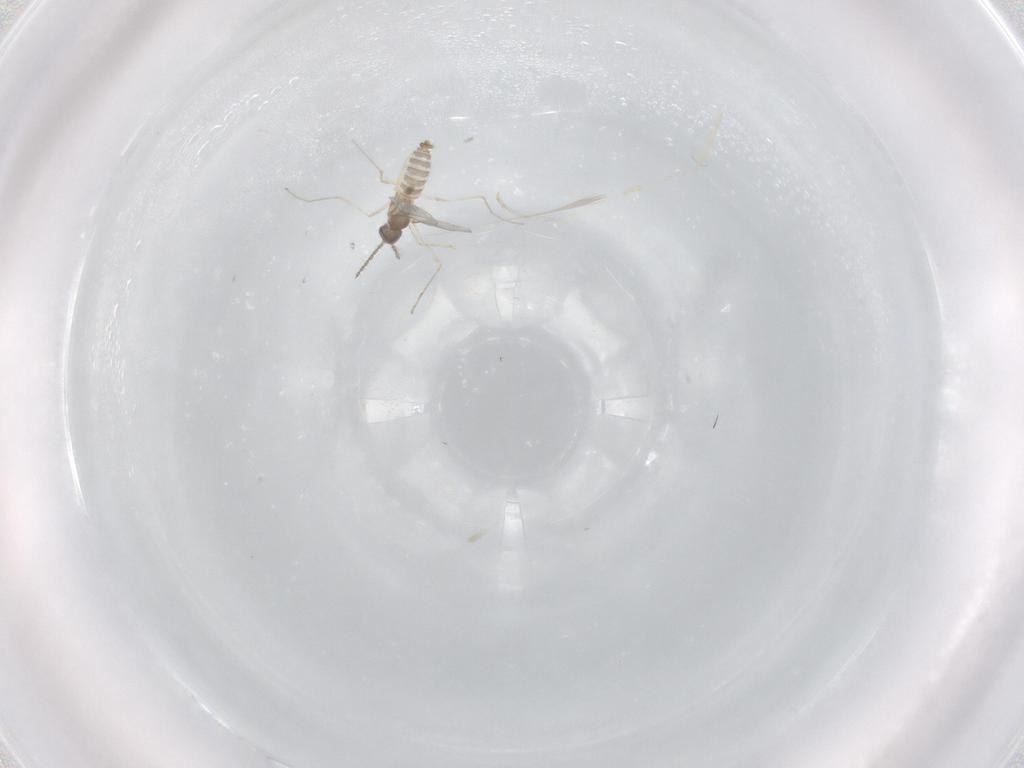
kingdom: Animalia
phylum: Arthropoda
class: Insecta
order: Diptera
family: Cecidomyiidae
